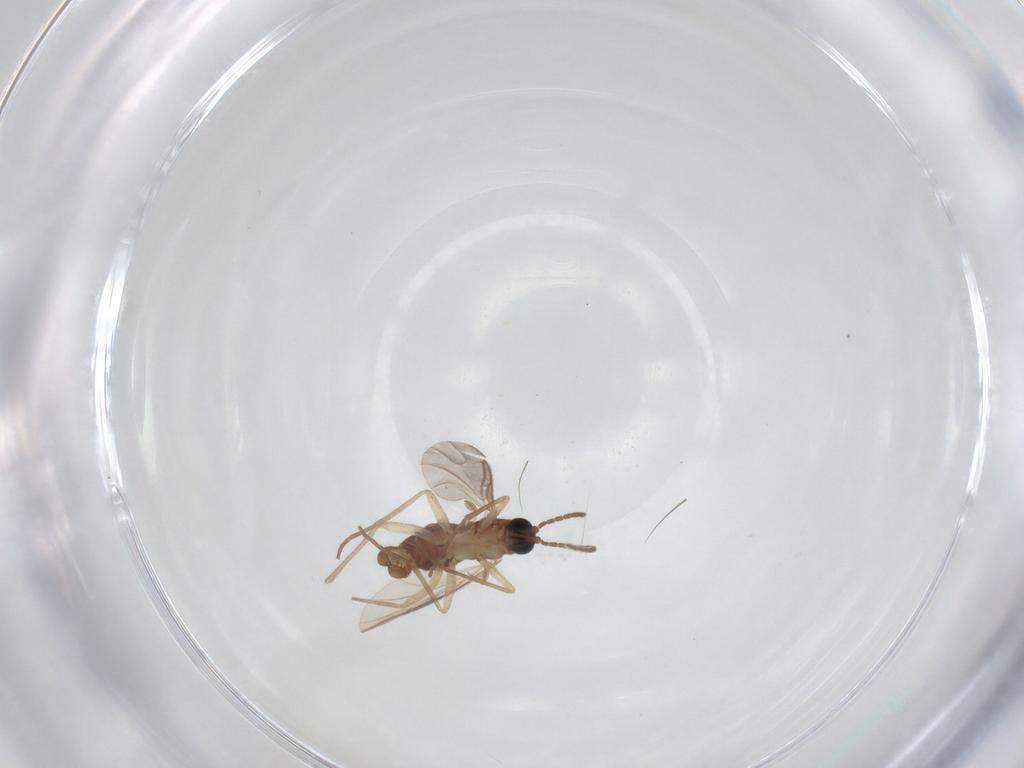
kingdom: Animalia
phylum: Arthropoda
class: Insecta
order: Diptera
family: Sciaridae
